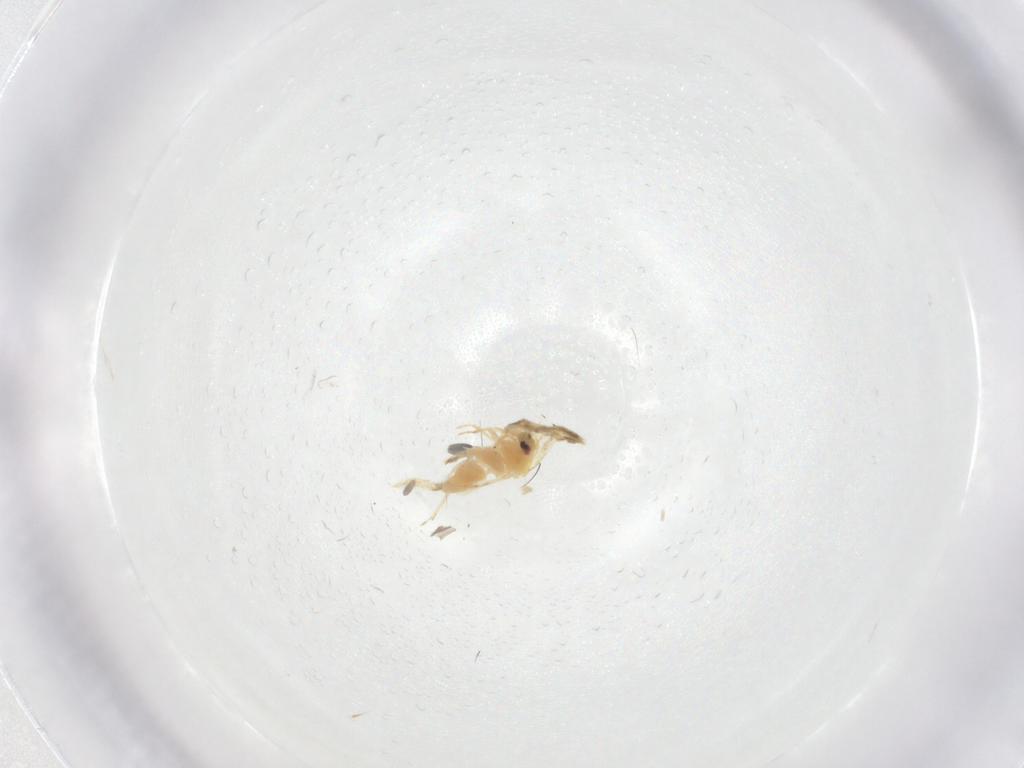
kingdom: Animalia
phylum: Arthropoda
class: Insecta
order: Hemiptera
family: Aleyrodidae
